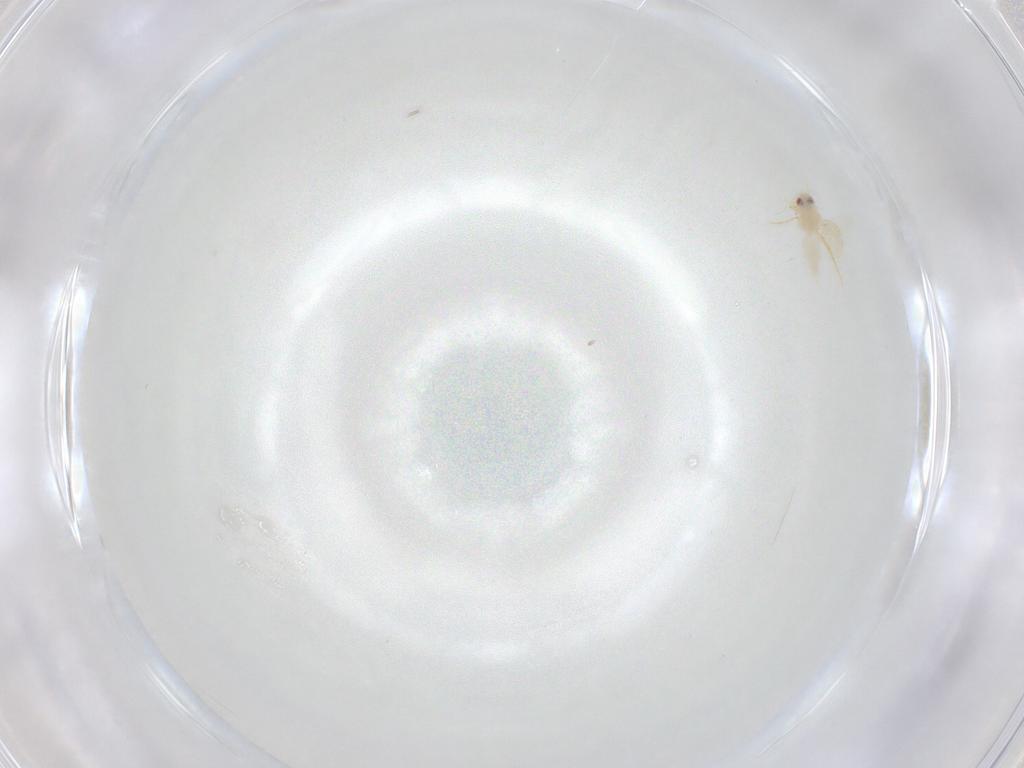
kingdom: Animalia
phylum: Arthropoda
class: Insecta
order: Hemiptera
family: Aleyrodidae
